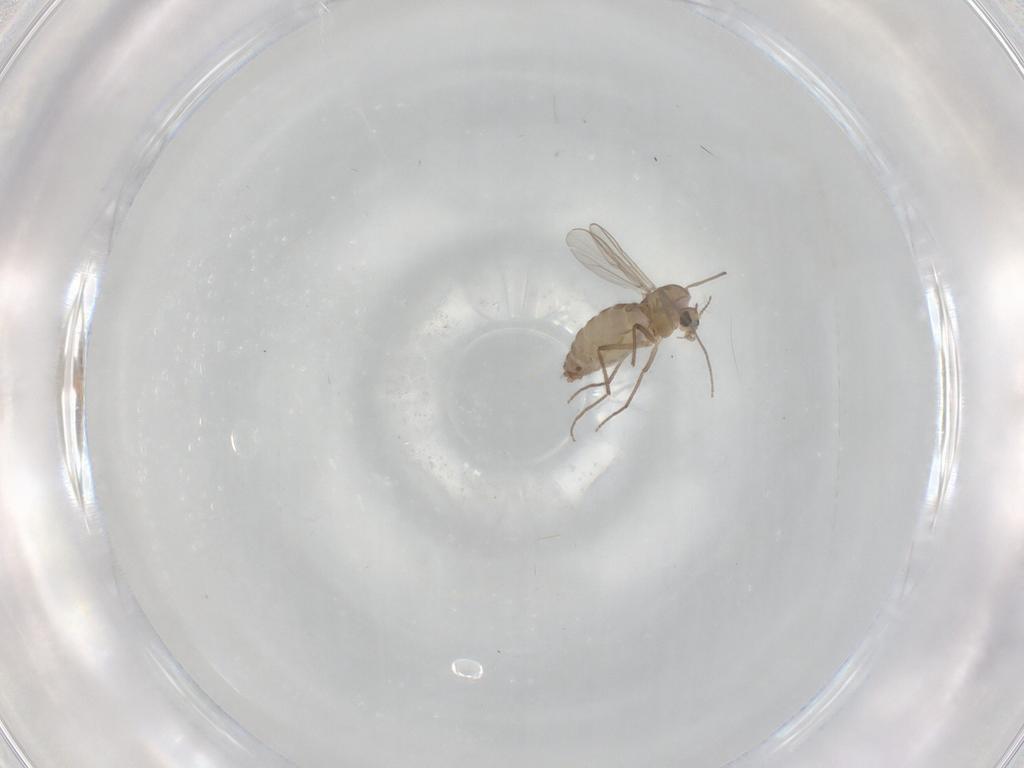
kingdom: Animalia
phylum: Arthropoda
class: Insecta
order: Diptera
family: Chironomidae
